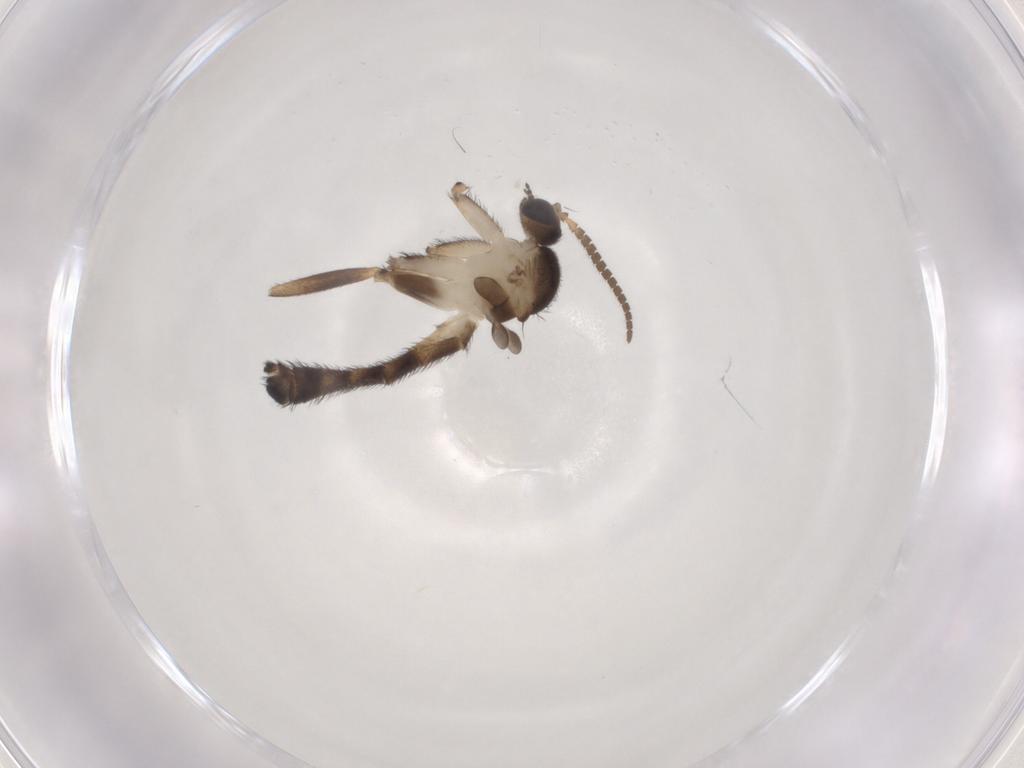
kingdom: Animalia
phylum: Arthropoda
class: Insecta
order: Diptera
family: Keroplatidae
